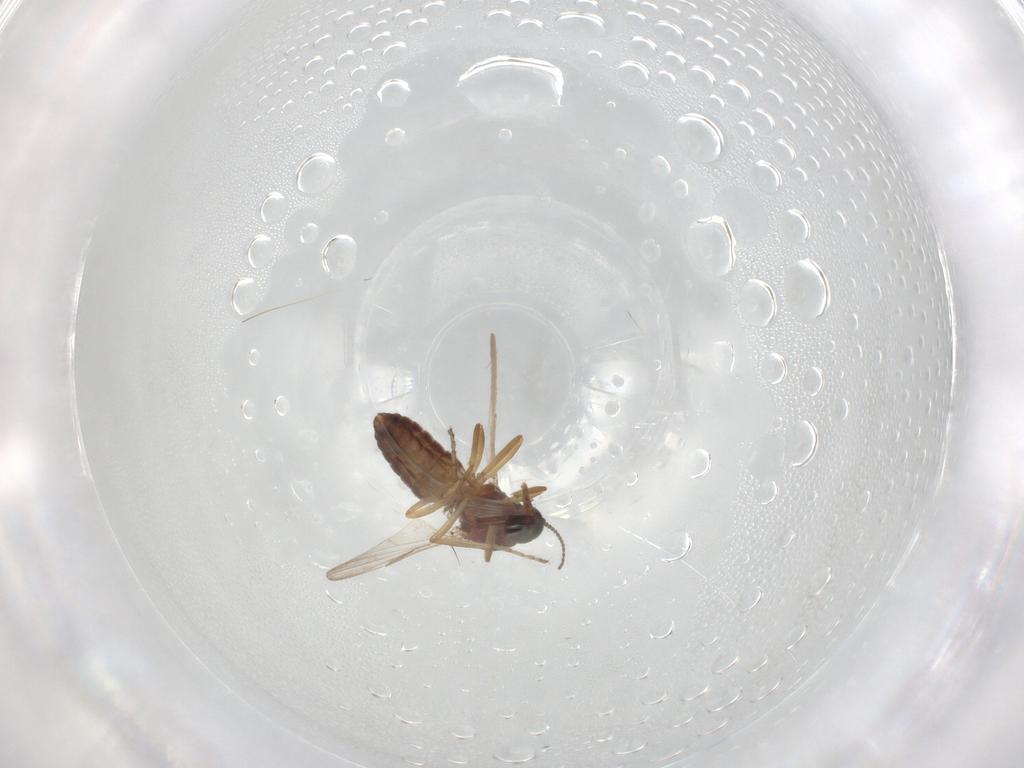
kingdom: Animalia
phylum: Arthropoda
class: Insecta
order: Diptera
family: Ceratopogonidae
